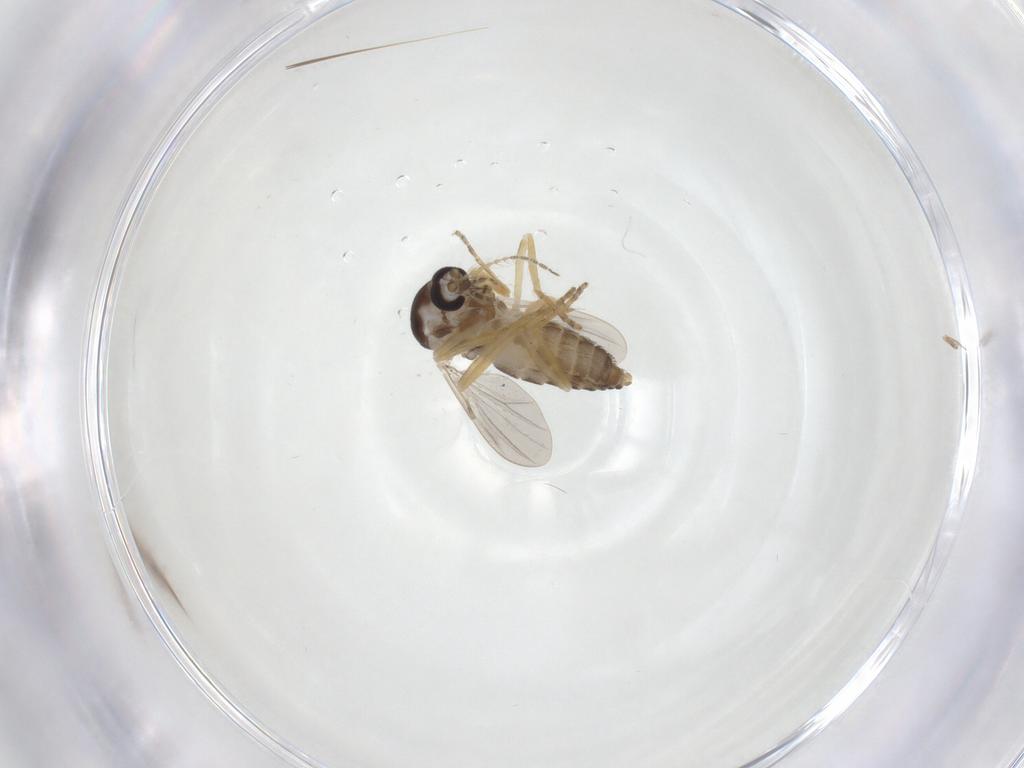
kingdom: Animalia
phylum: Arthropoda
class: Insecta
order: Diptera
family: Ceratopogonidae
